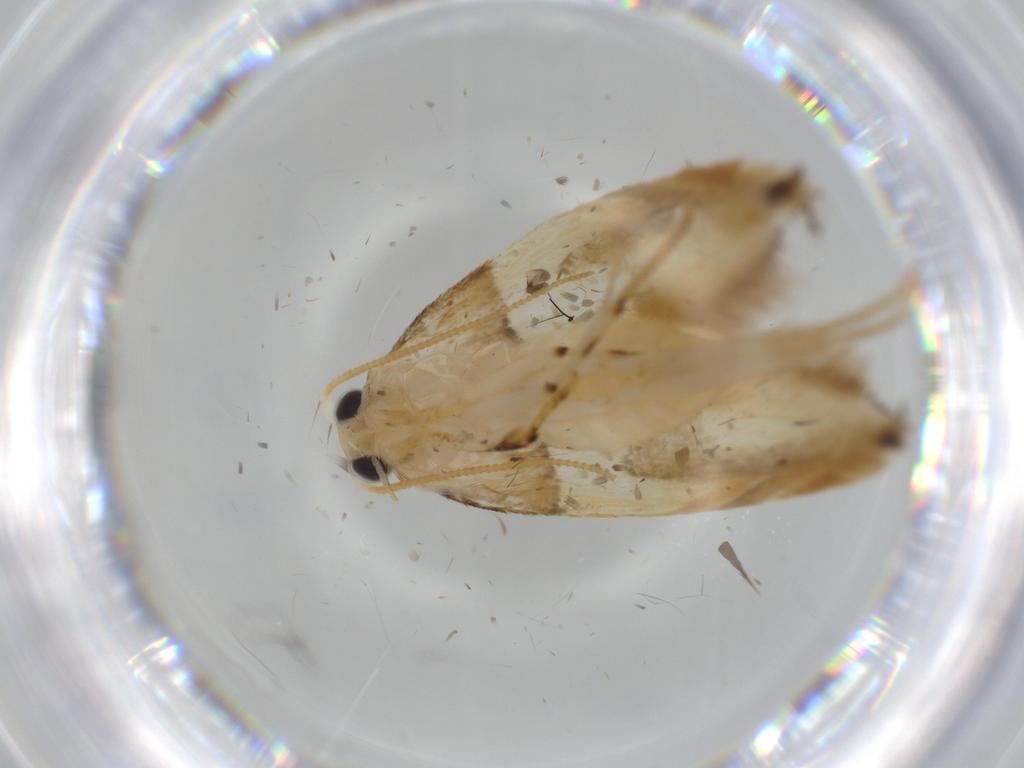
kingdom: Animalia
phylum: Arthropoda
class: Insecta
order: Lepidoptera
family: Tineidae
